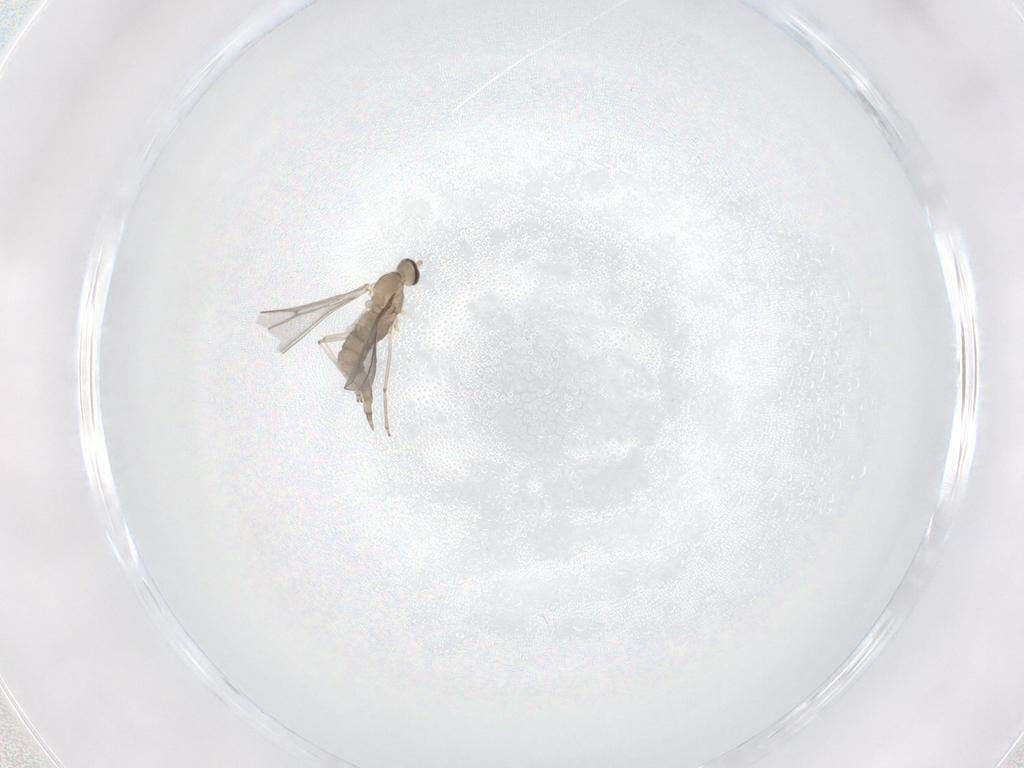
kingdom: Animalia
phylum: Arthropoda
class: Insecta
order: Diptera
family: Cecidomyiidae
